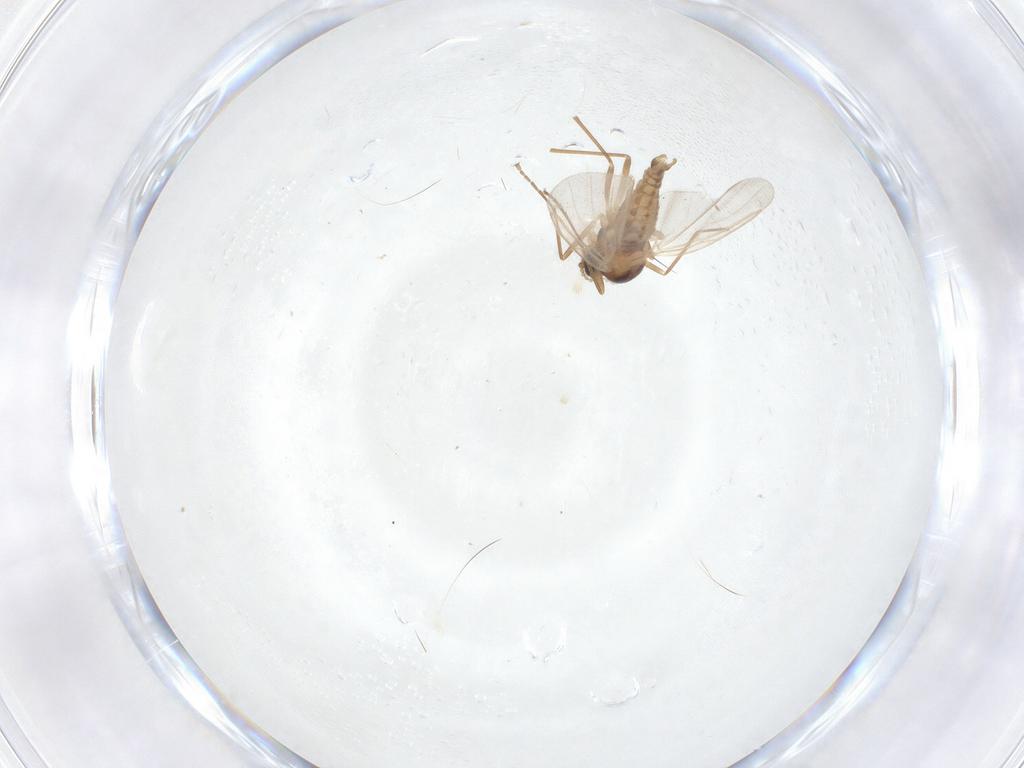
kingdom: Animalia
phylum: Arthropoda
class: Insecta
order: Diptera
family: Cecidomyiidae
